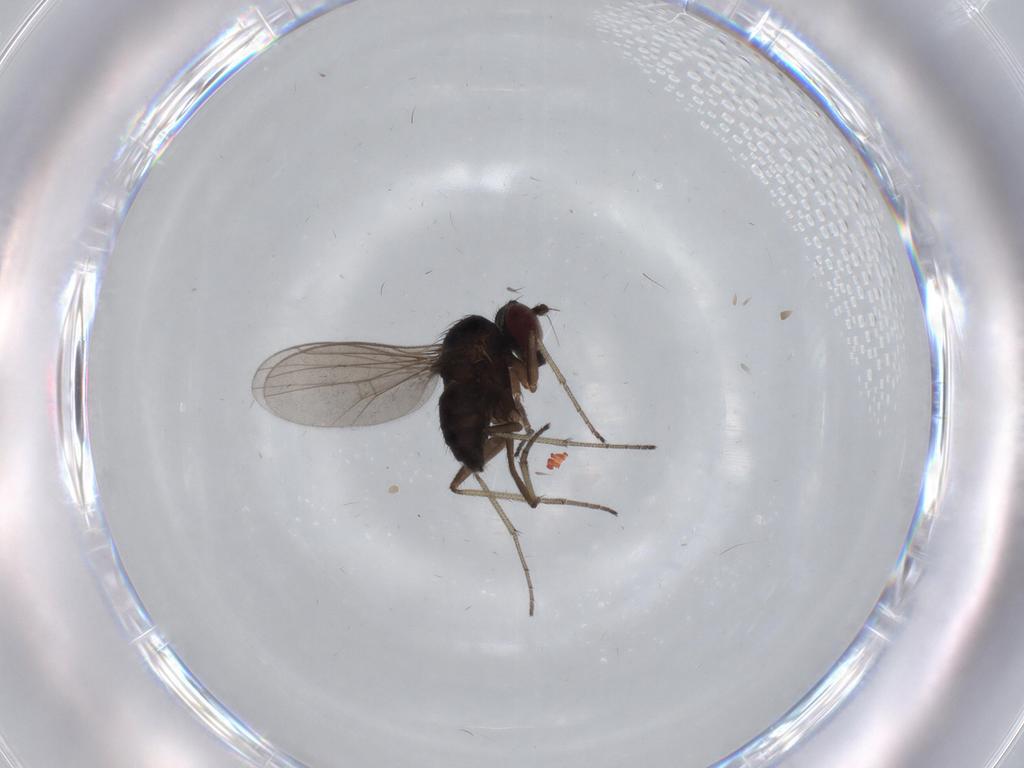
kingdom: Animalia
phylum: Arthropoda
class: Insecta
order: Diptera
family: Dolichopodidae
